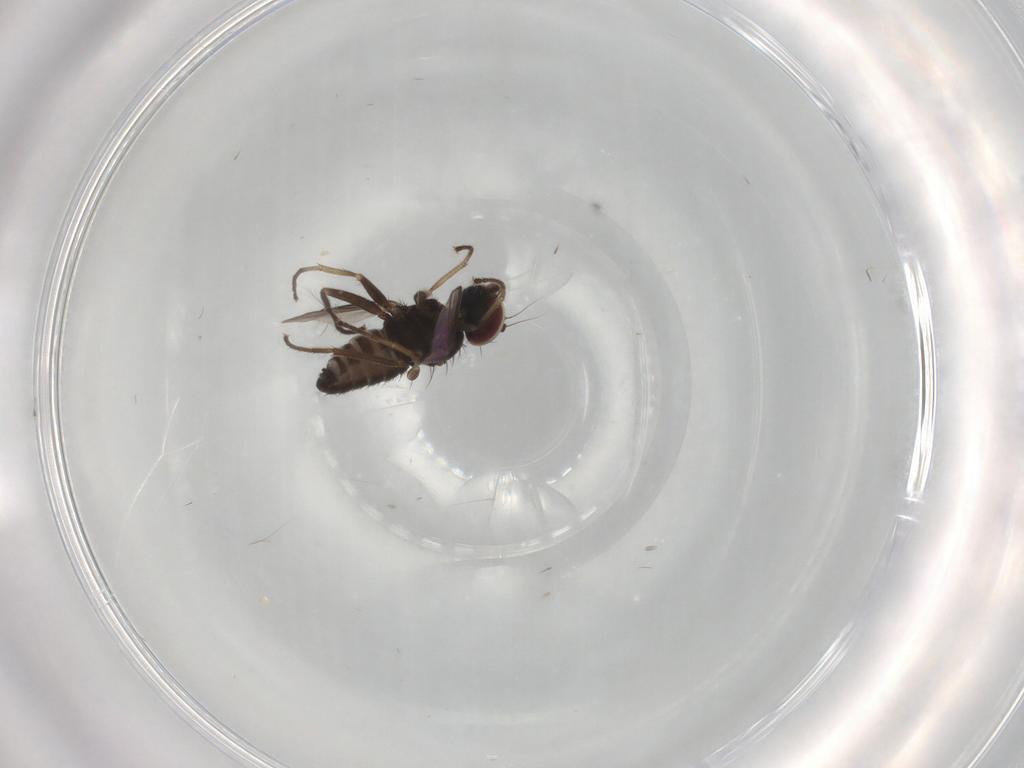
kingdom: Animalia
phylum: Arthropoda
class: Insecta
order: Diptera
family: Dolichopodidae
